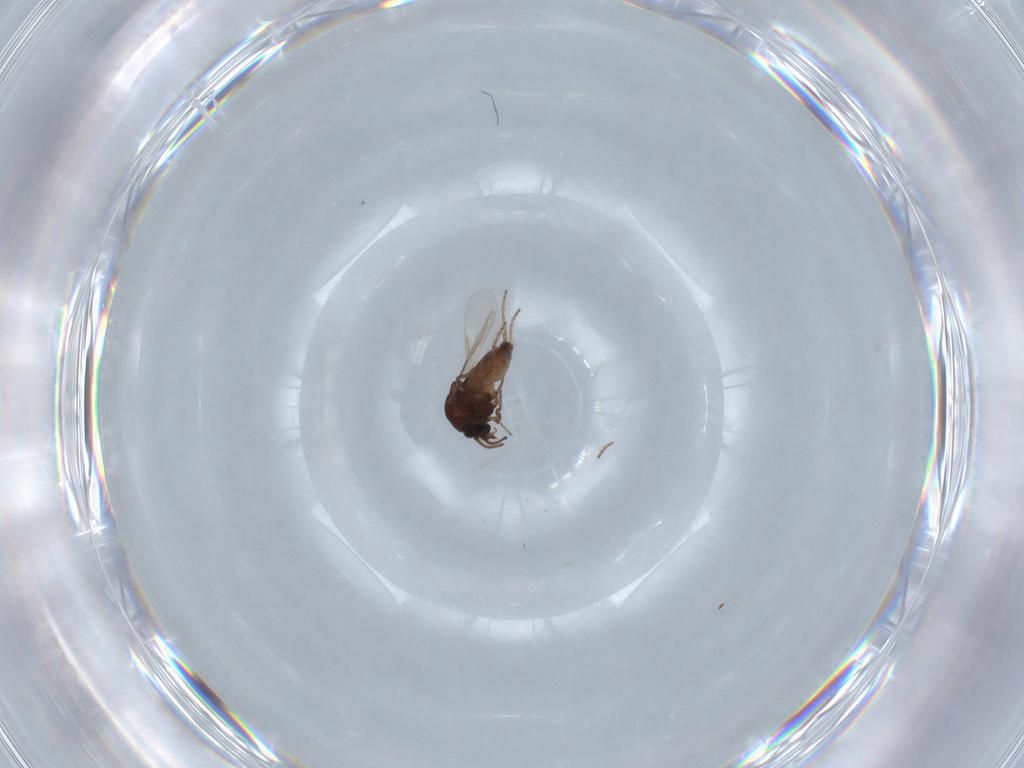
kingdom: Animalia
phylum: Arthropoda
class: Insecta
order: Diptera
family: Ceratopogonidae
